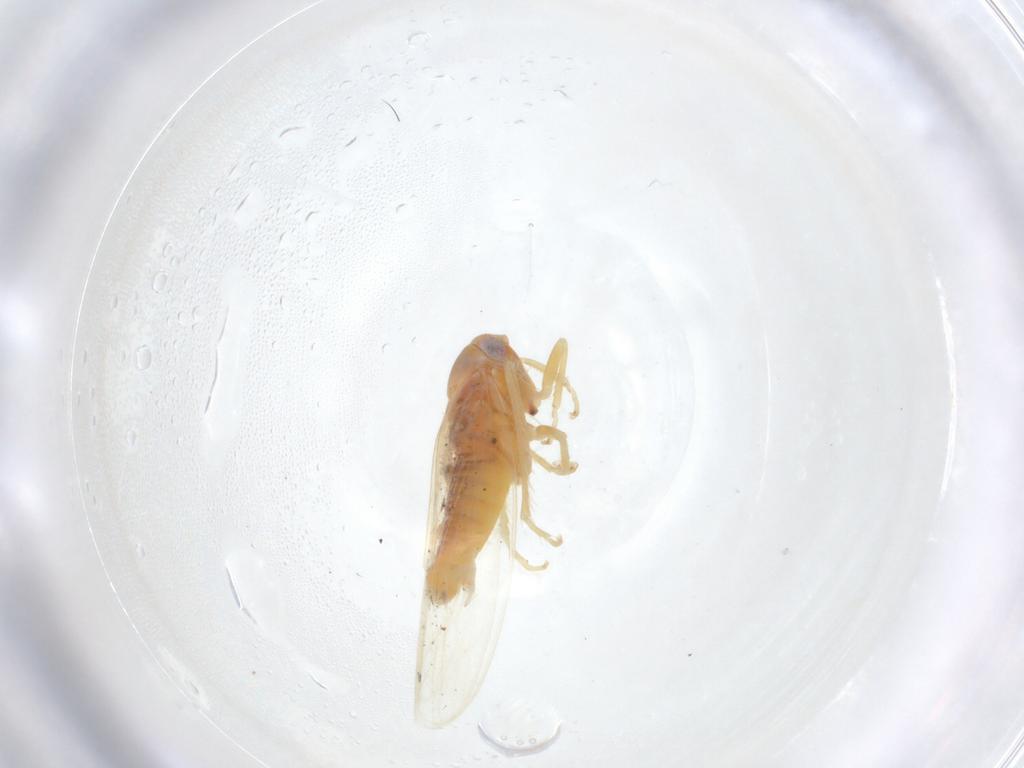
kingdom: Animalia
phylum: Arthropoda
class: Insecta
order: Hemiptera
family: Cicadellidae
